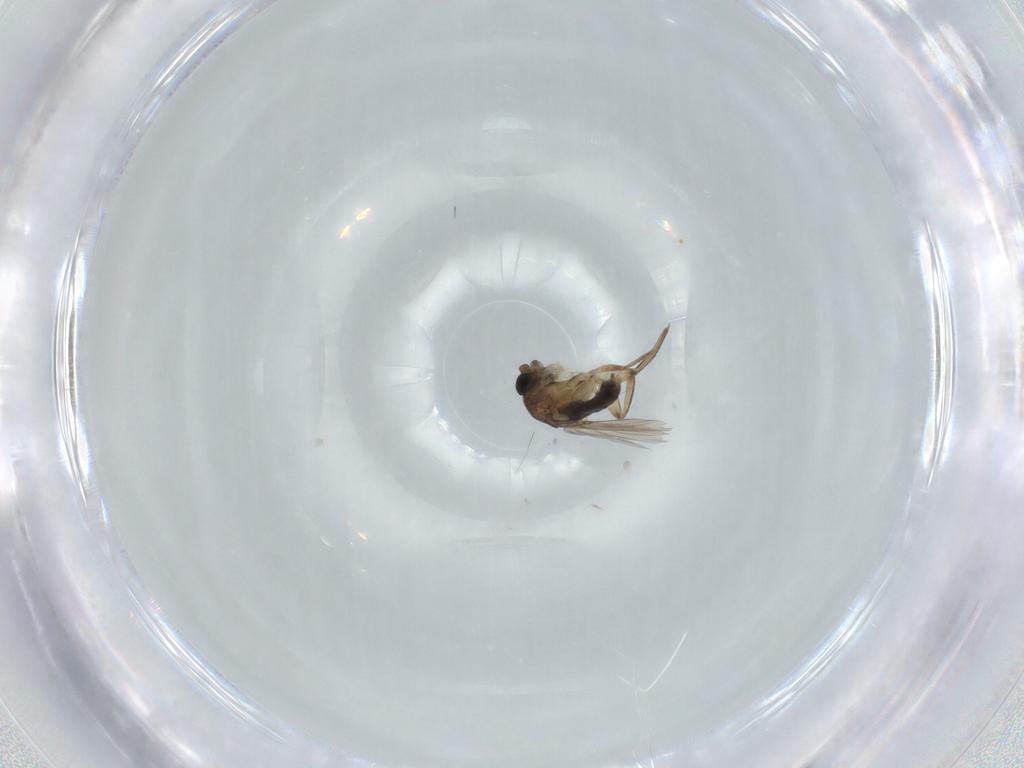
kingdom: Animalia
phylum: Arthropoda
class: Insecta
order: Diptera
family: Phoridae
